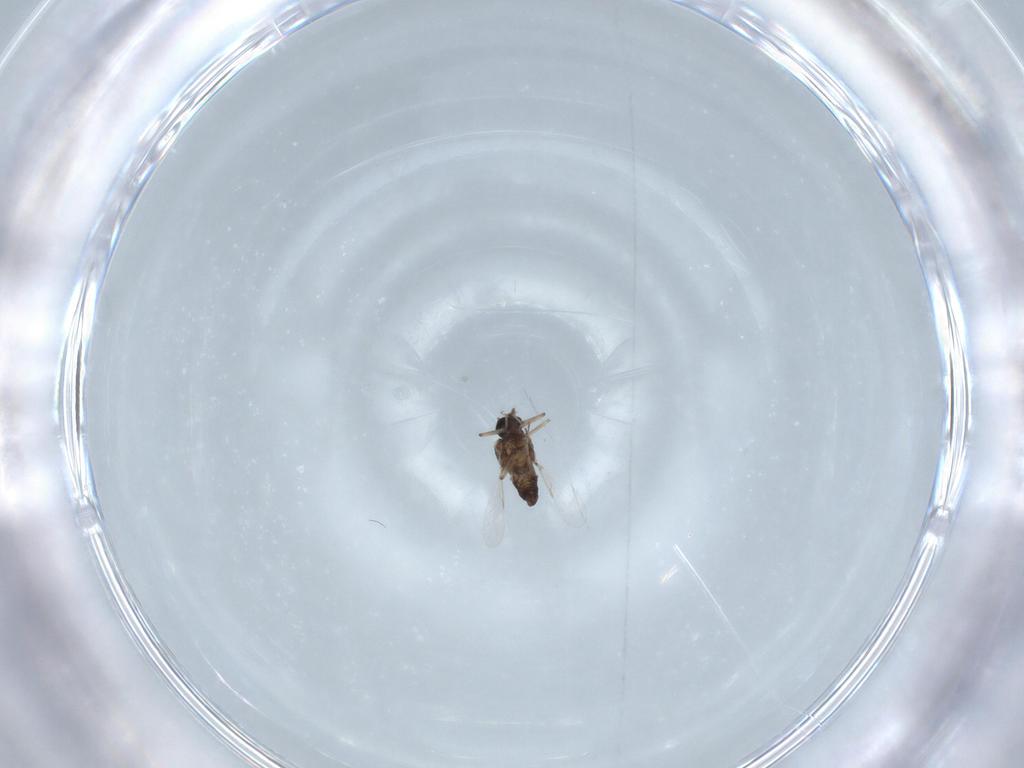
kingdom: Animalia
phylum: Arthropoda
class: Insecta
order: Diptera
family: Ceratopogonidae
